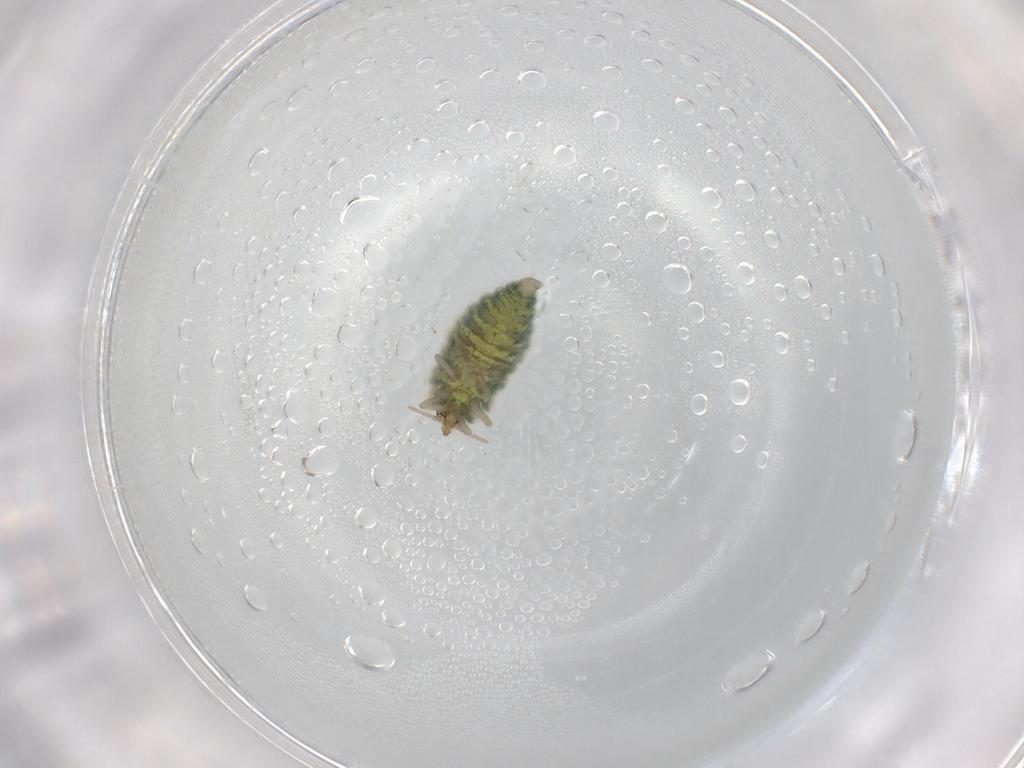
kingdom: Animalia
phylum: Arthropoda
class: Insecta
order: Neuroptera
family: Coniopterygidae
